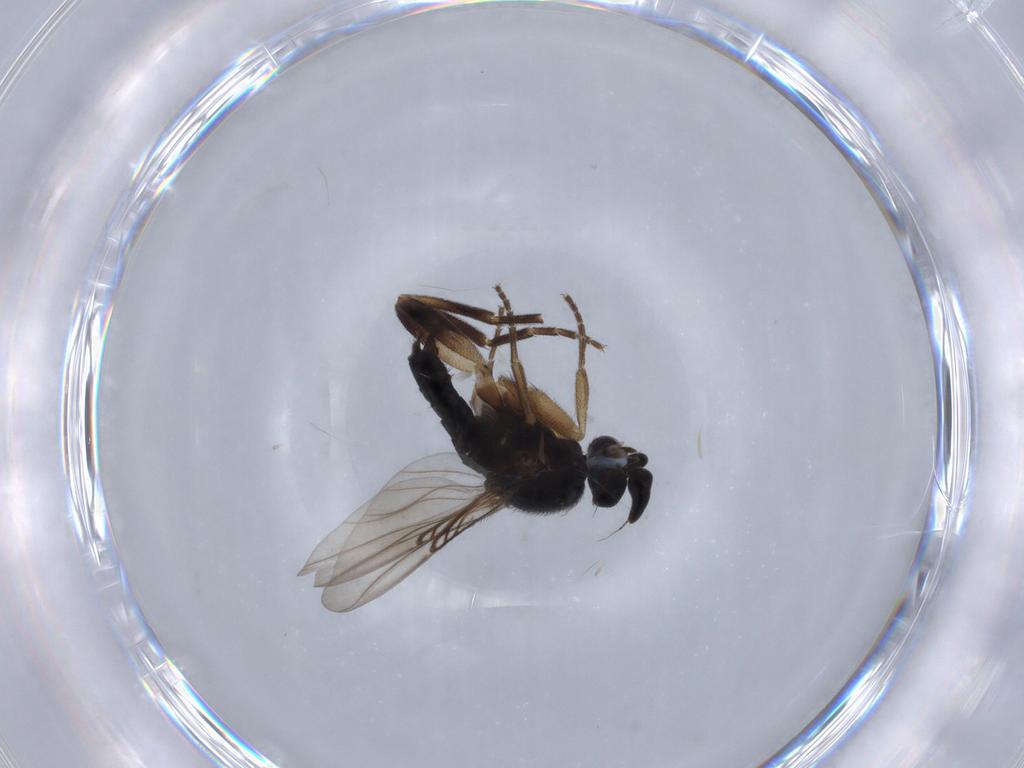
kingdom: Animalia
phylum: Arthropoda
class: Insecta
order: Diptera
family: Phoridae
